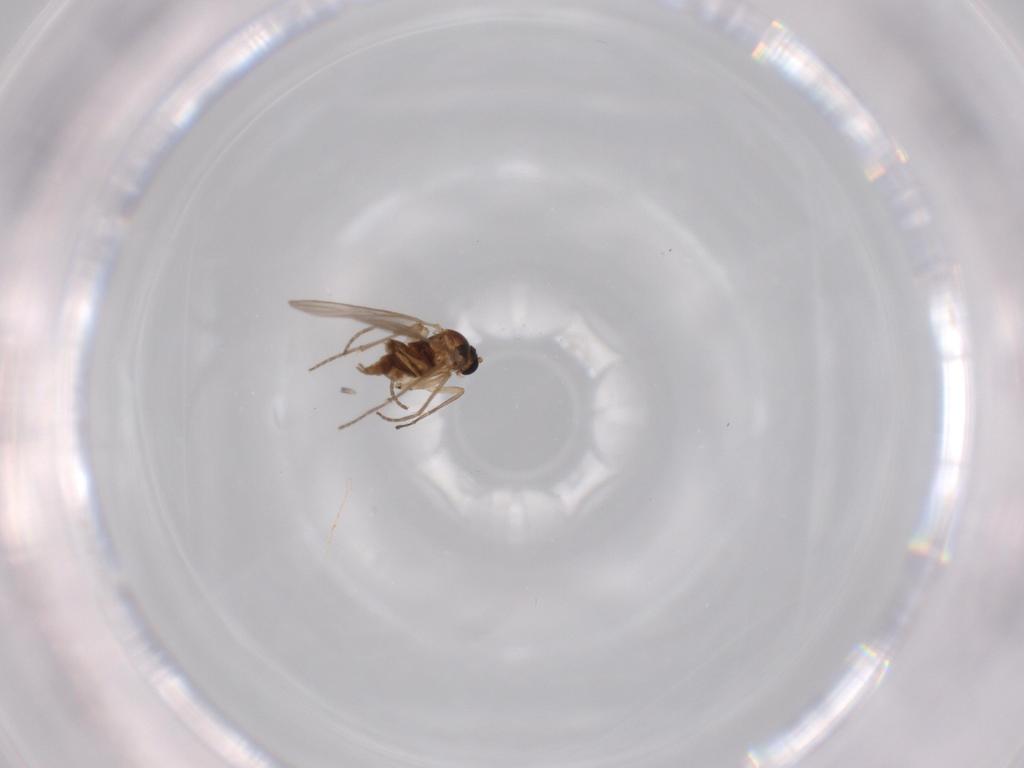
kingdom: Animalia
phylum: Arthropoda
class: Insecta
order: Diptera
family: Sciaridae
